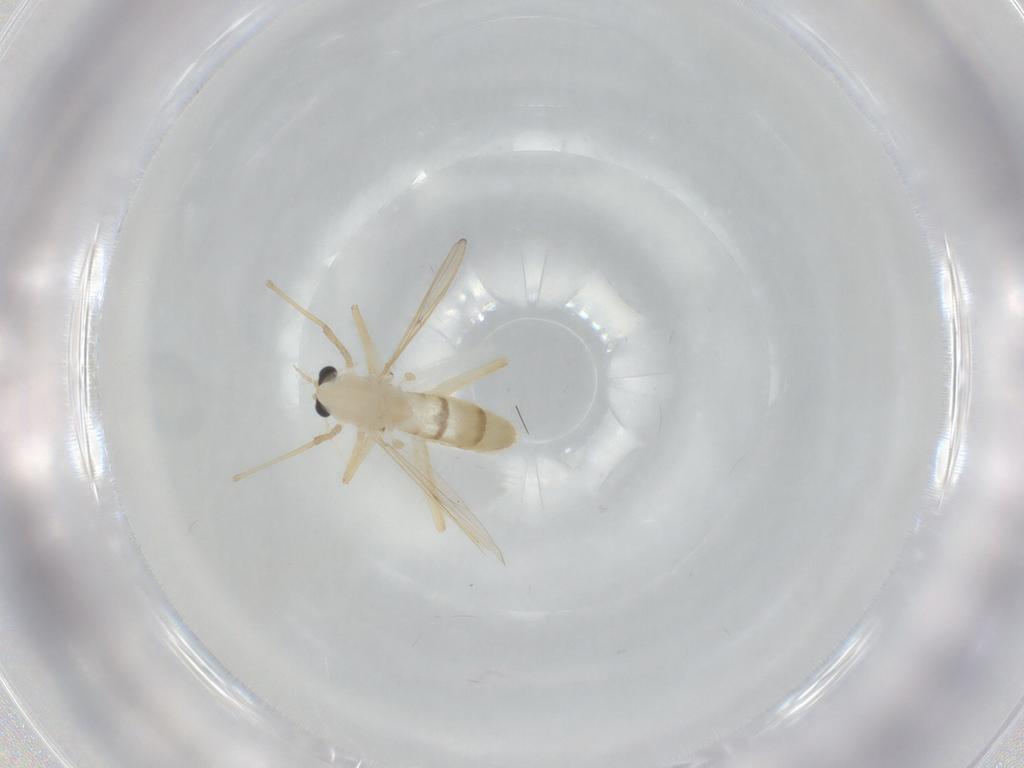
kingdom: Animalia
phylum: Arthropoda
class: Insecta
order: Diptera
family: Chironomidae
